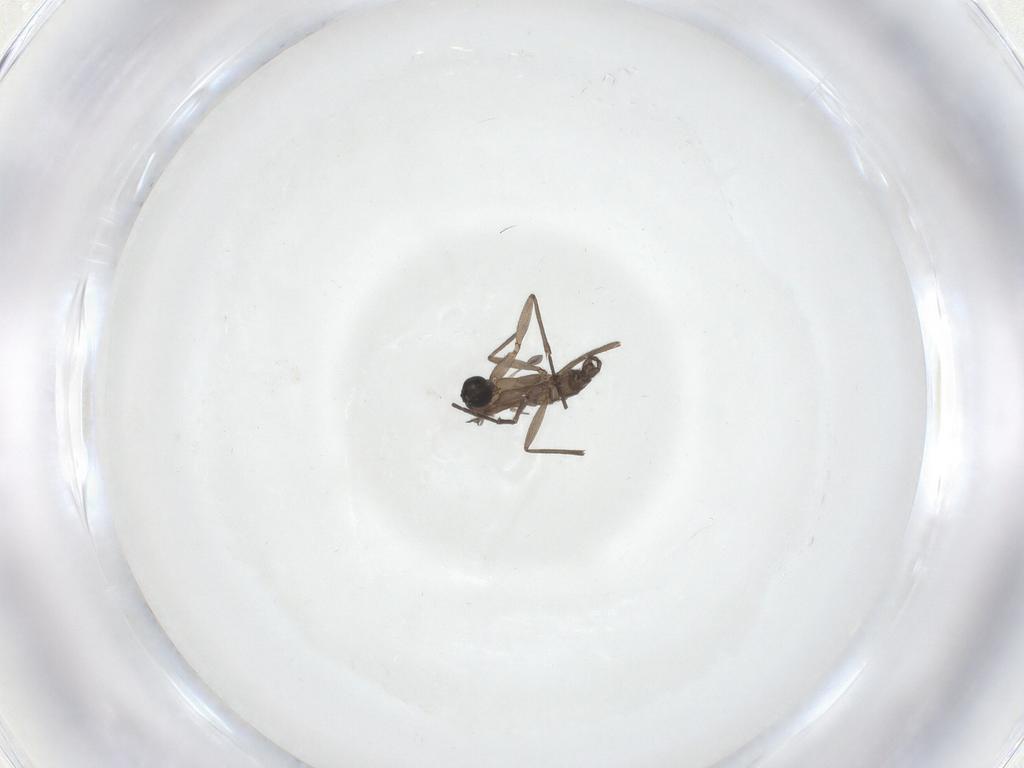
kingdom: Animalia
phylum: Arthropoda
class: Insecta
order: Diptera
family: Sciaridae
